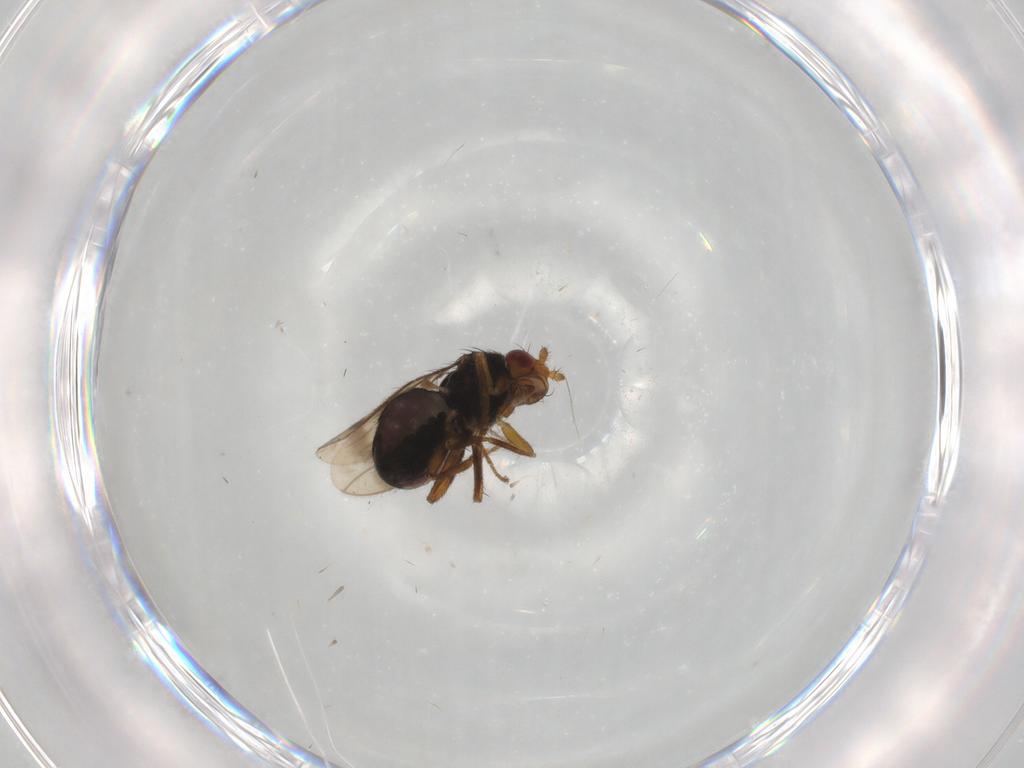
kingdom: Animalia
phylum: Arthropoda
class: Insecta
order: Diptera
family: Sphaeroceridae
